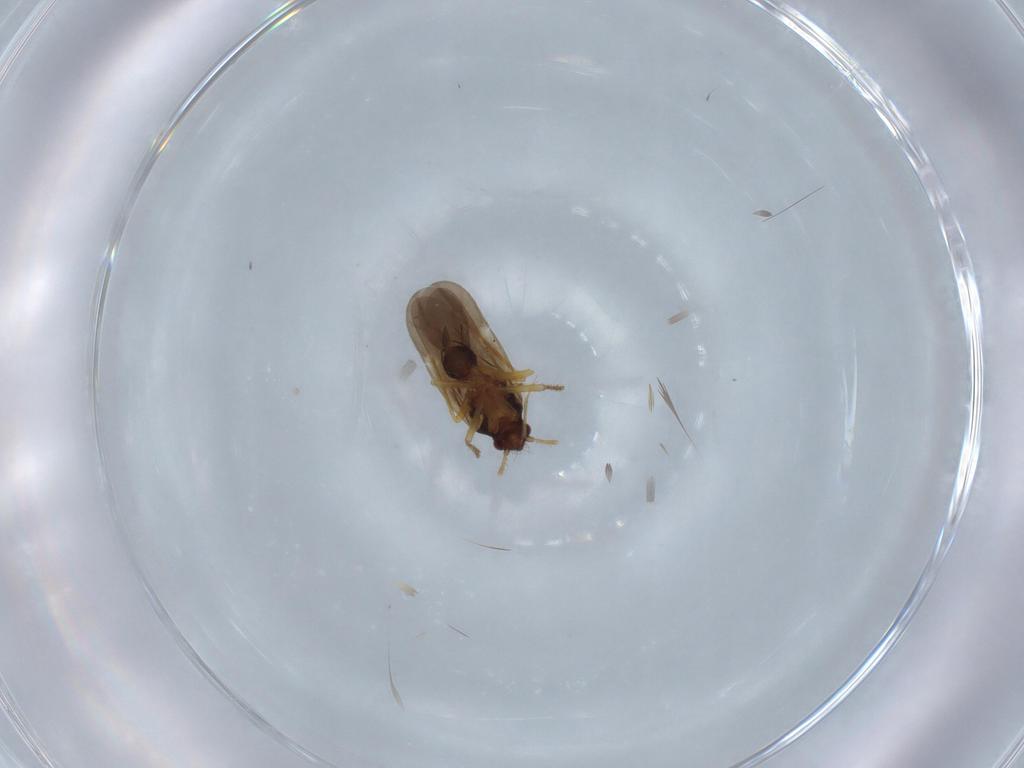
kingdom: Animalia
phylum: Arthropoda
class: Insecta
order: Hemiptera
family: Ceratocombidae
